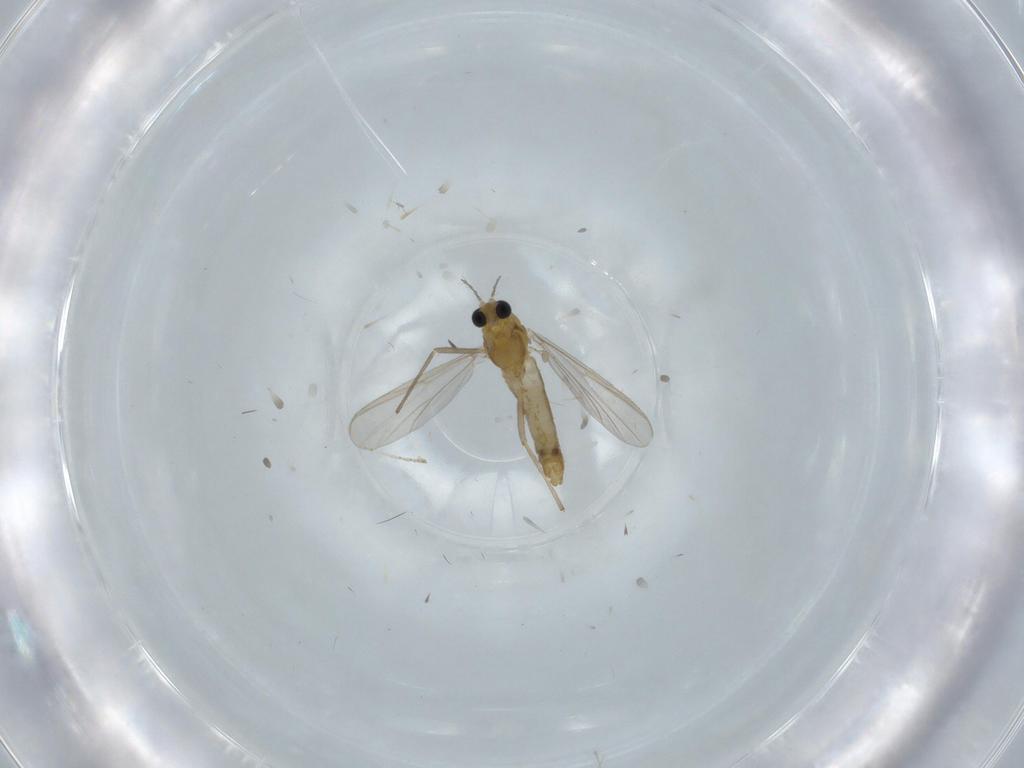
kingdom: Animalia
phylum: Arthropoda
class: Insecta
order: Diptera
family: Chironomidae
